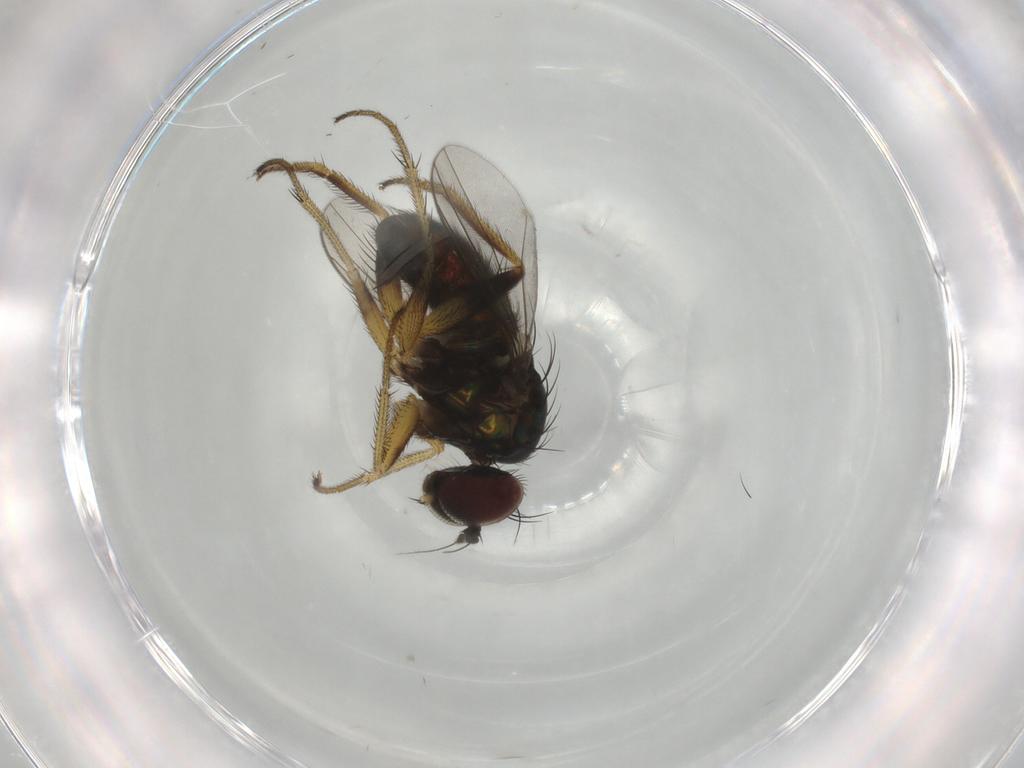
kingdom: Animalia
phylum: Arthropoda
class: Insecta
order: Diptera
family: Dolichopodidae
